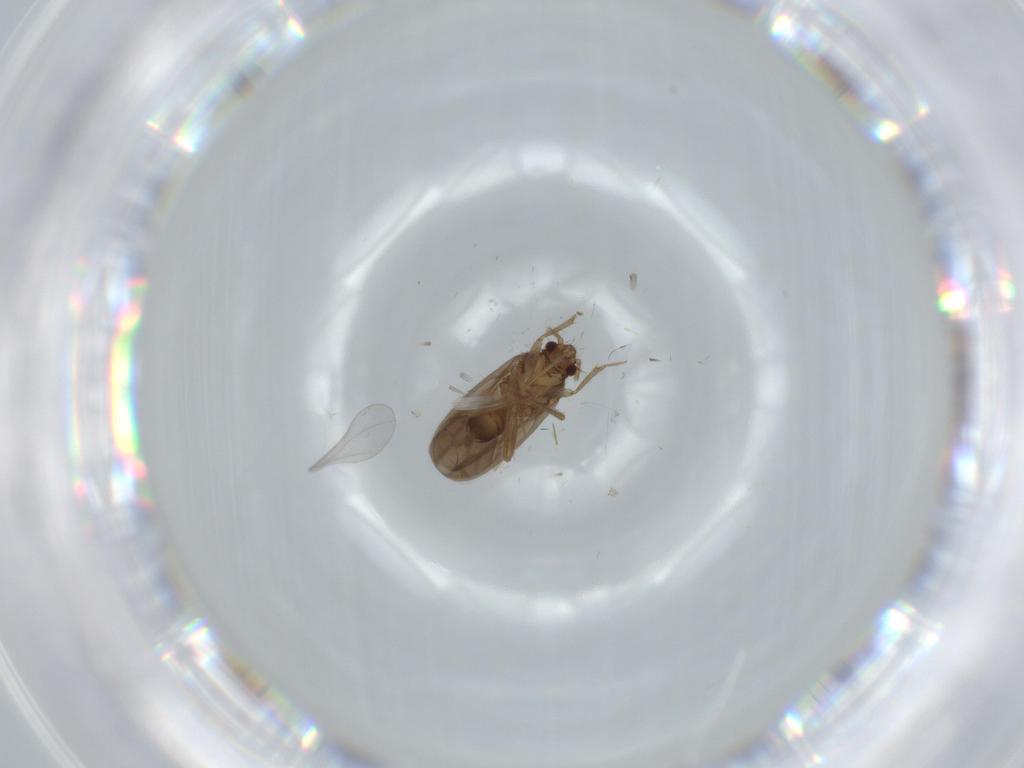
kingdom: Animalia
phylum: Arthropoda
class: Insecta
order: Hemiptera
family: Ceratocombidae
